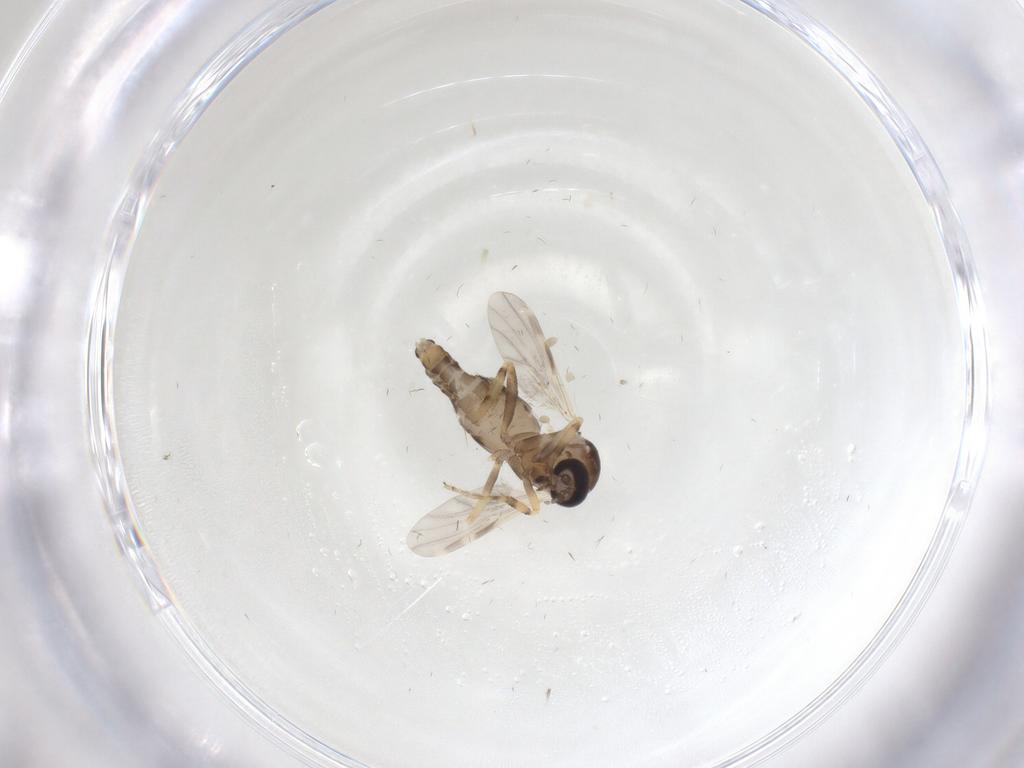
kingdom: Animalia
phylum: Arthropoda
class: Insecta
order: Diptera
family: Ceratopogonidae
